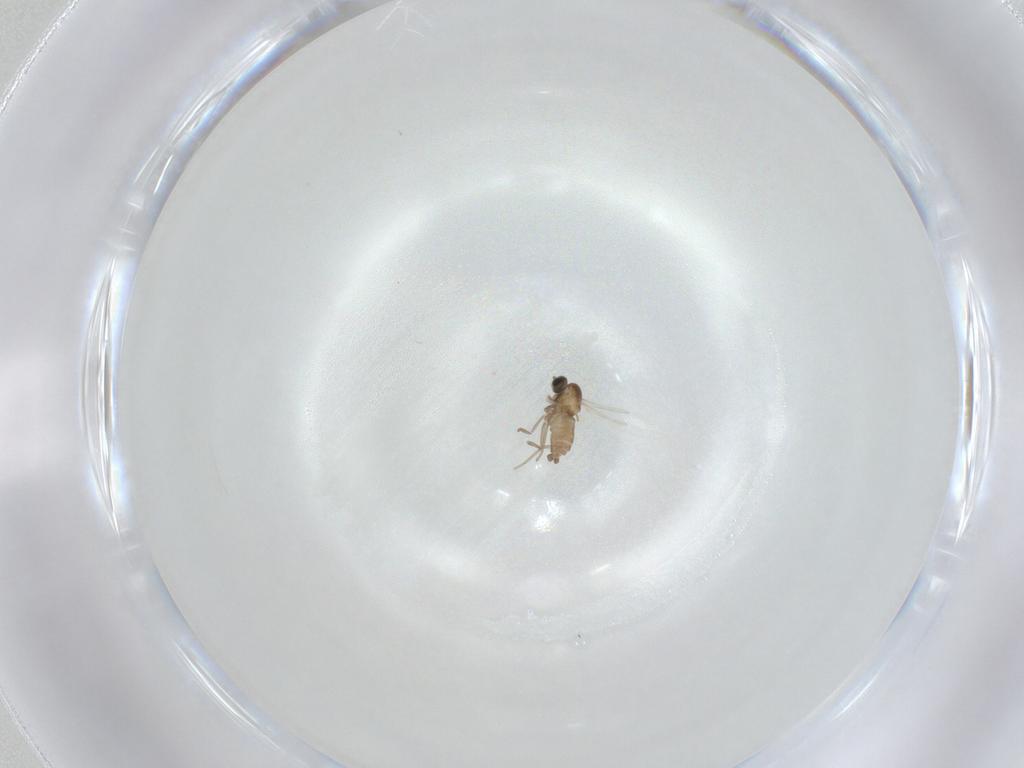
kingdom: Animalia
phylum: Arthropoda
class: Insecta
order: Diptera
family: Cecidomyiidae
